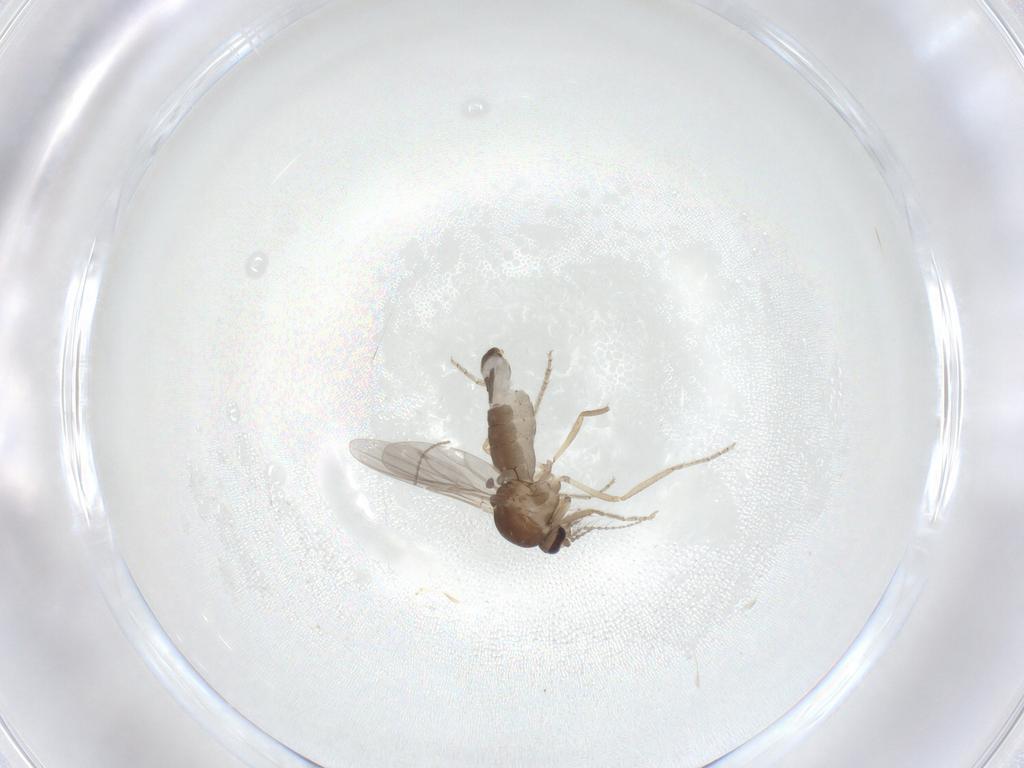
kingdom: Animalia
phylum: Arthropoda
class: Insecta
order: Diptera
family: Ceratopogonidae
